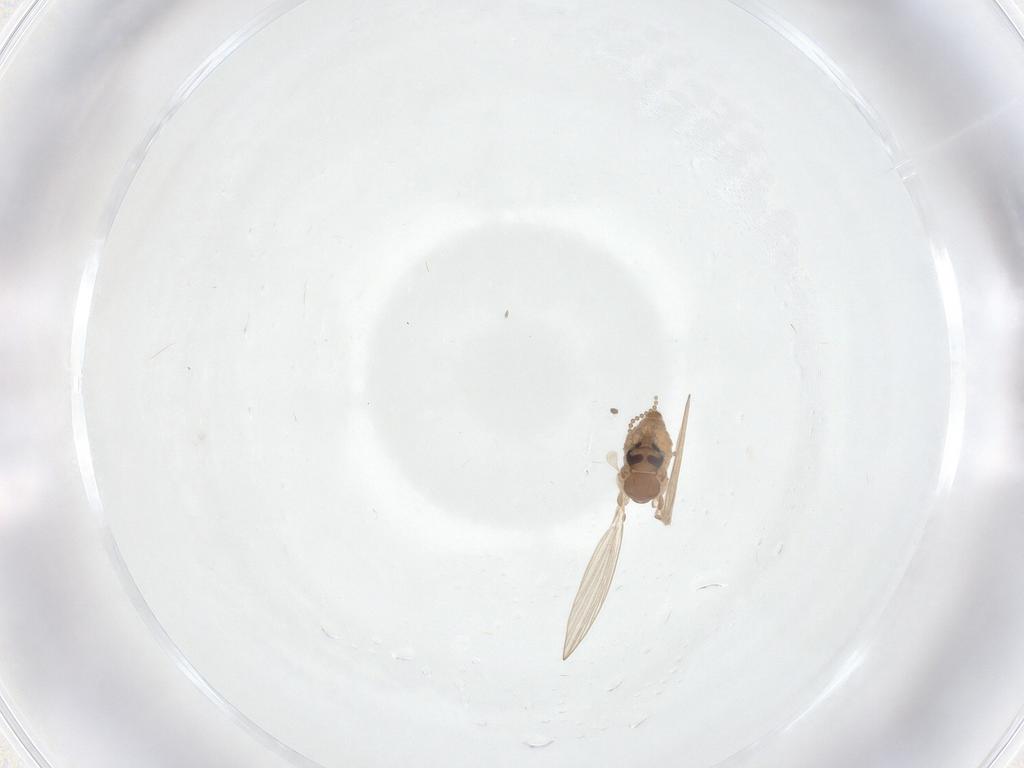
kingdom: Animalia
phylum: Arthropoda
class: Insecta
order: Diptera
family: Psychodidae
